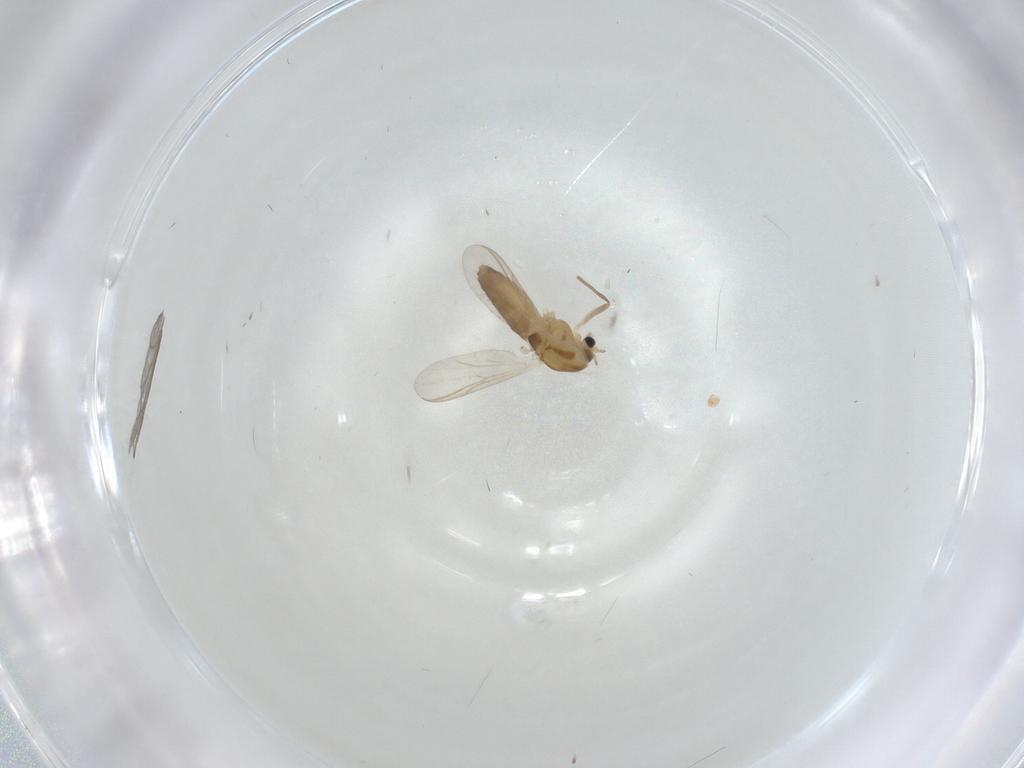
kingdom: Animalia
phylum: Arthropoda
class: Insecta
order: Diptera
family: Chironomidae
